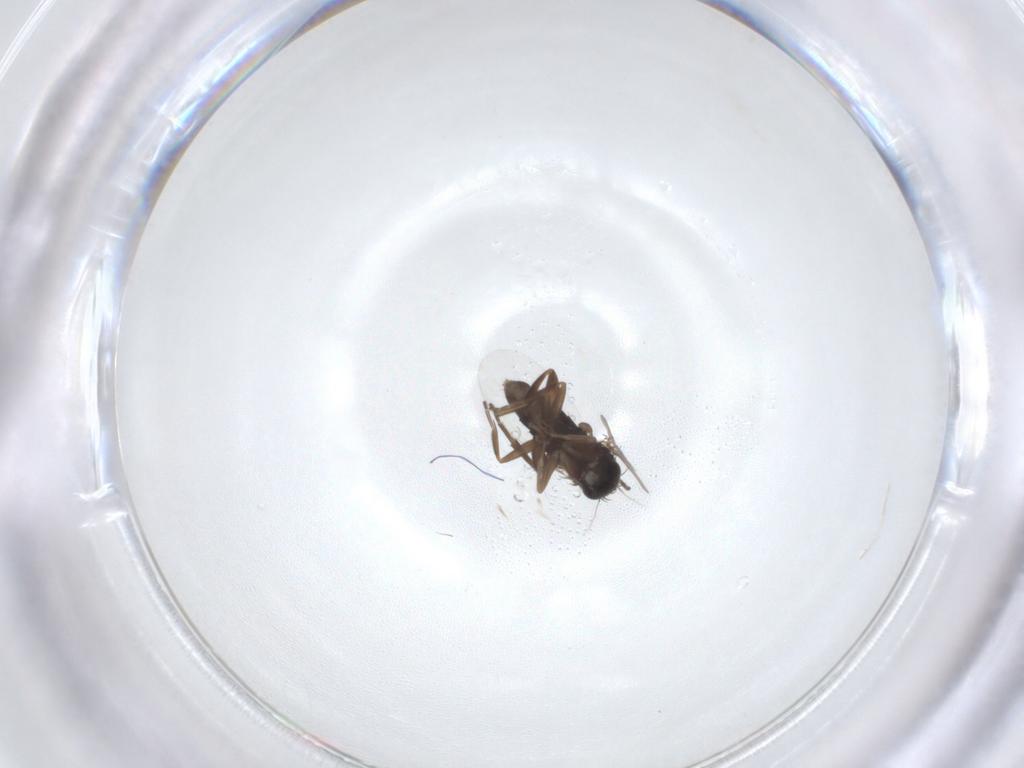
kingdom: Animalia
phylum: Arthropoda
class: Insecta
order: Diptera
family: Phoridae
